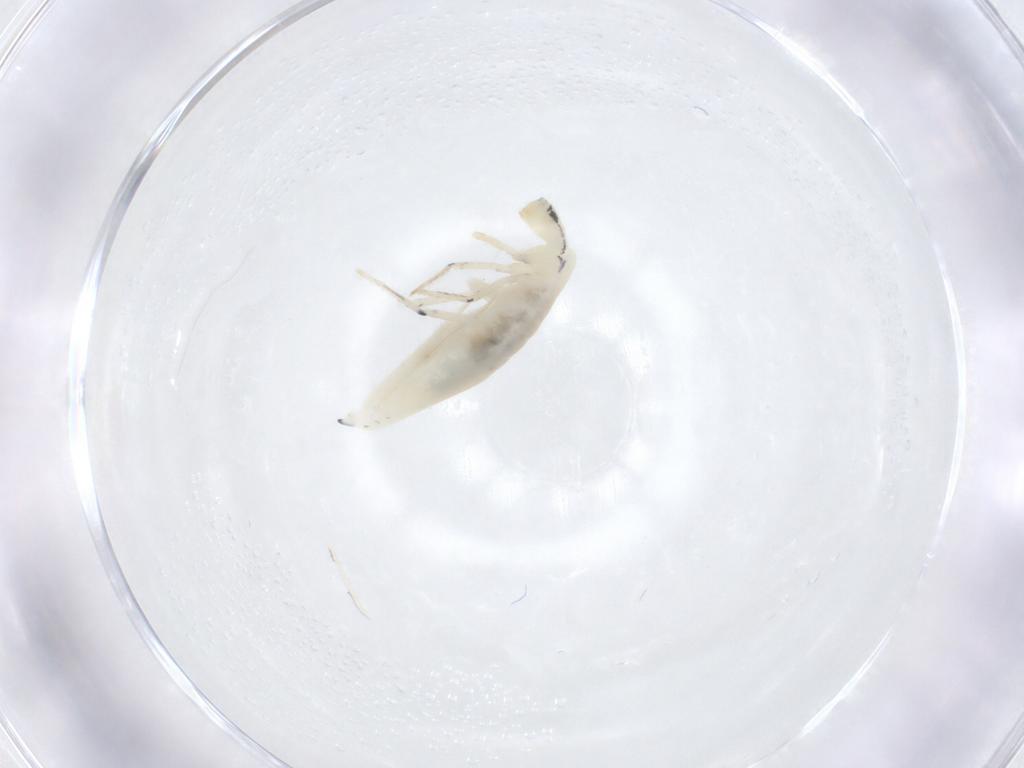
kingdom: Animalia
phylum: Arthropoda
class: Collembola
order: Entomobryomorpha
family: Entomobryidae
